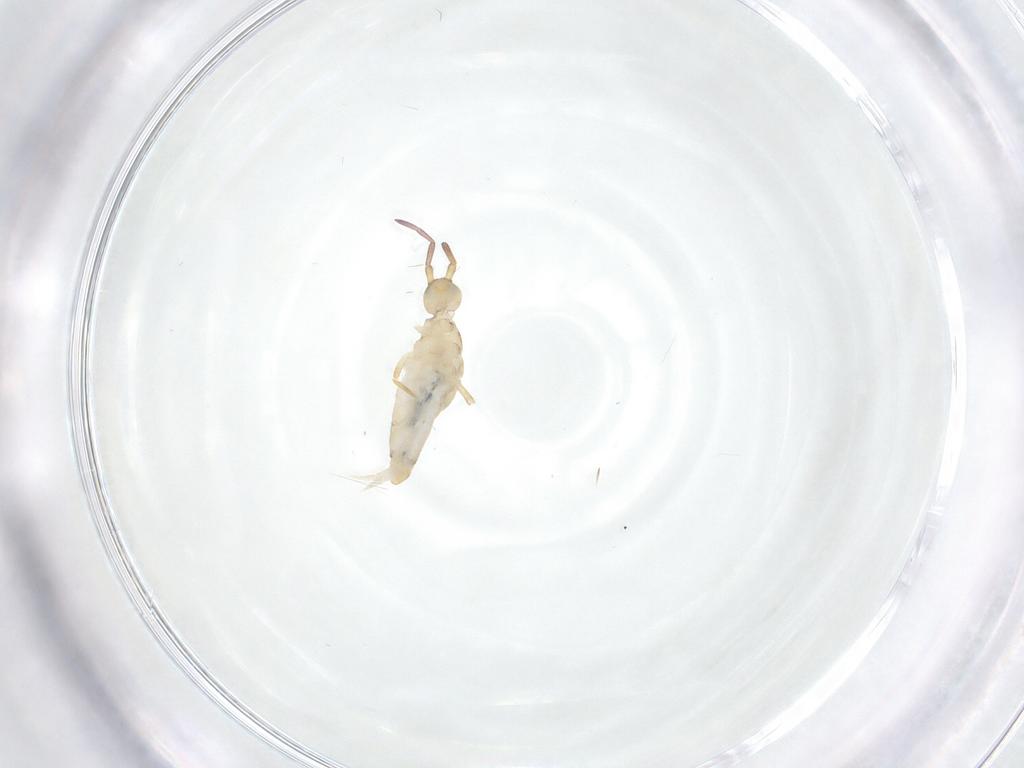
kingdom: Animalia
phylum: Arthropoda
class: Collembola
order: Entomobryomorpha
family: Entomobryidae
